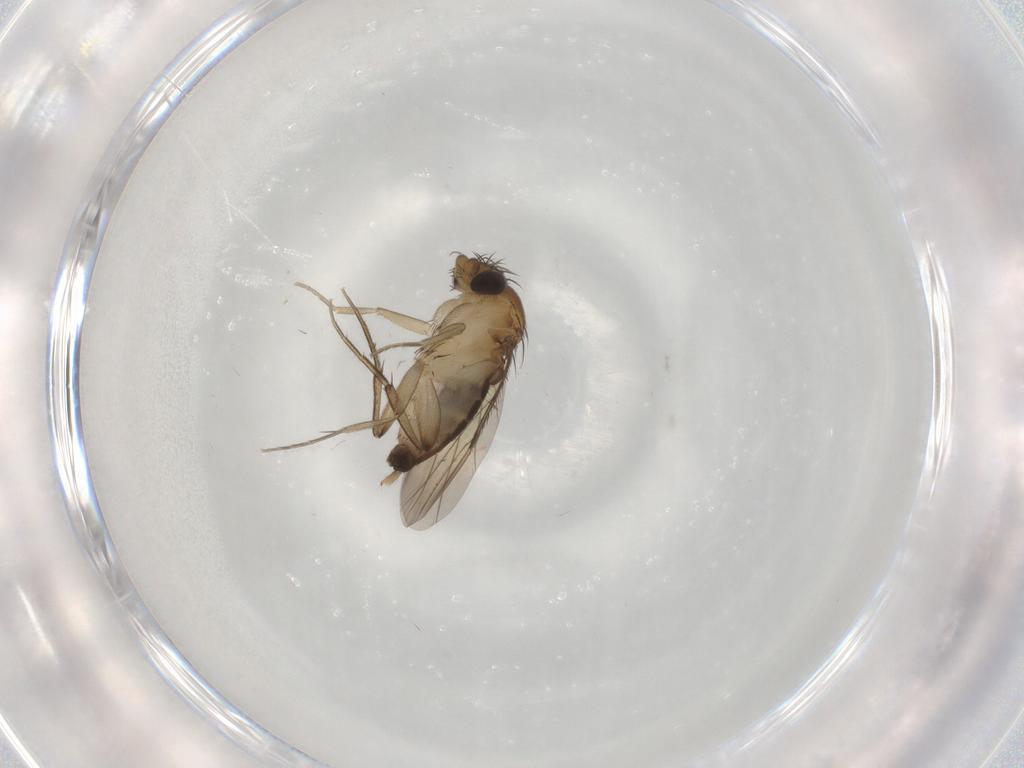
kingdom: Animalia
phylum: Arthropoda
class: Insecta
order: Diptera
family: Phoridae
